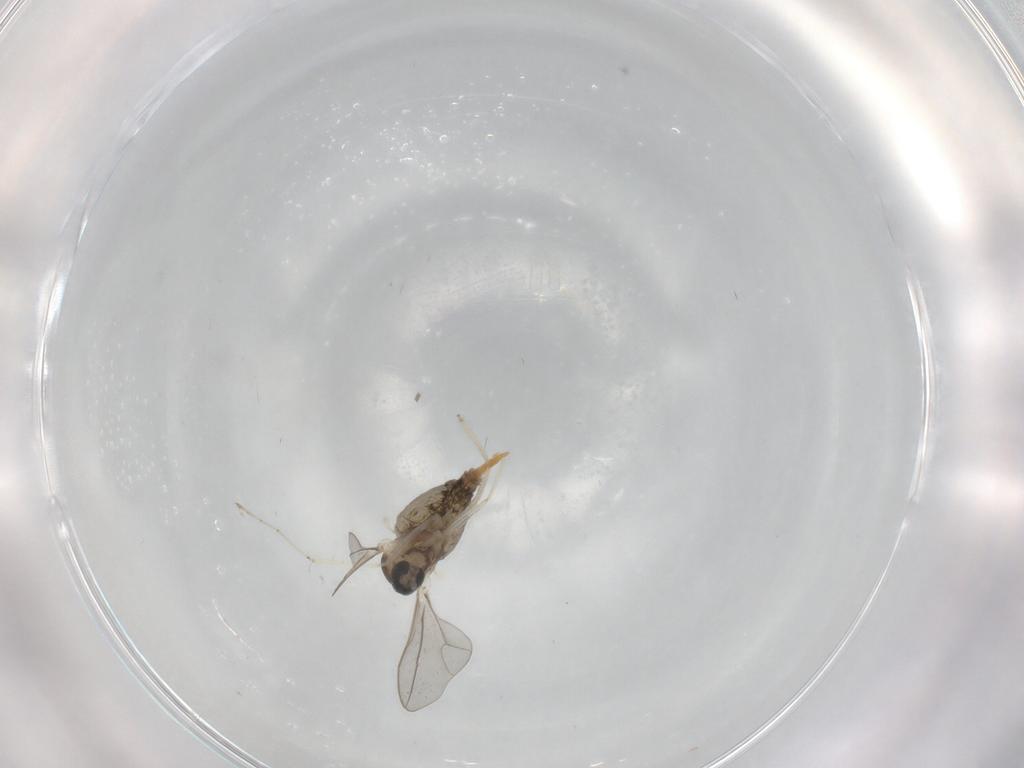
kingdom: Animalia
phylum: Arthropoda
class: Insecta
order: Diptera
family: Cecidomyiidae
